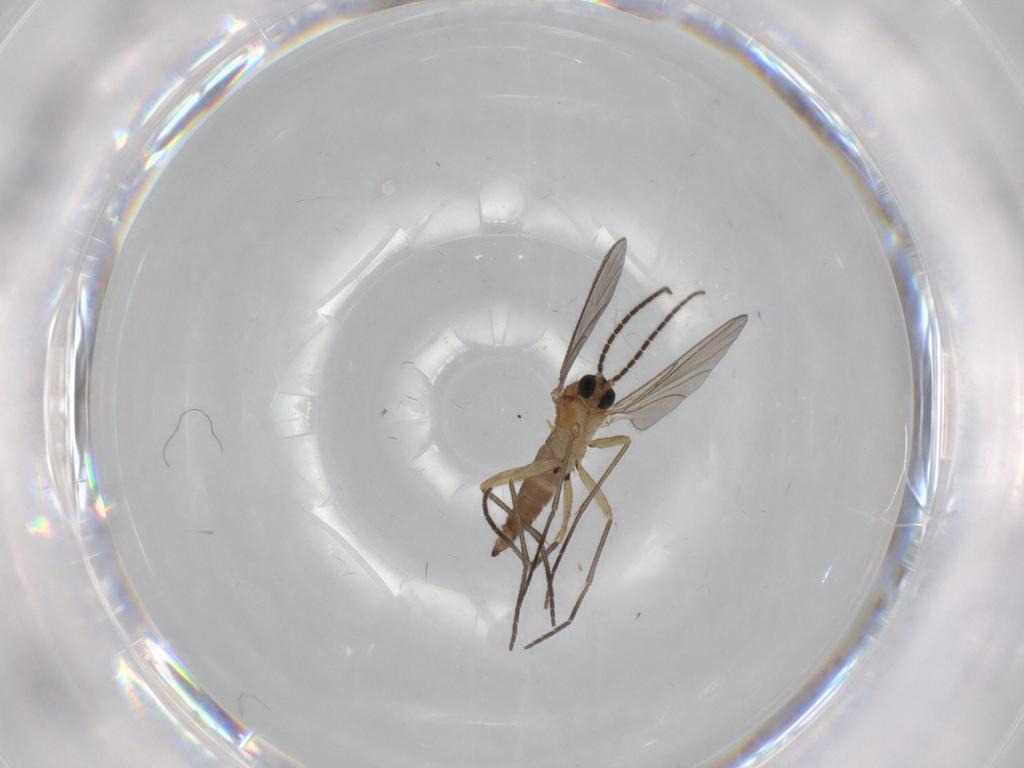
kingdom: Animalia
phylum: Arthropoda
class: Insecta
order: Diptera
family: Sciaridae
